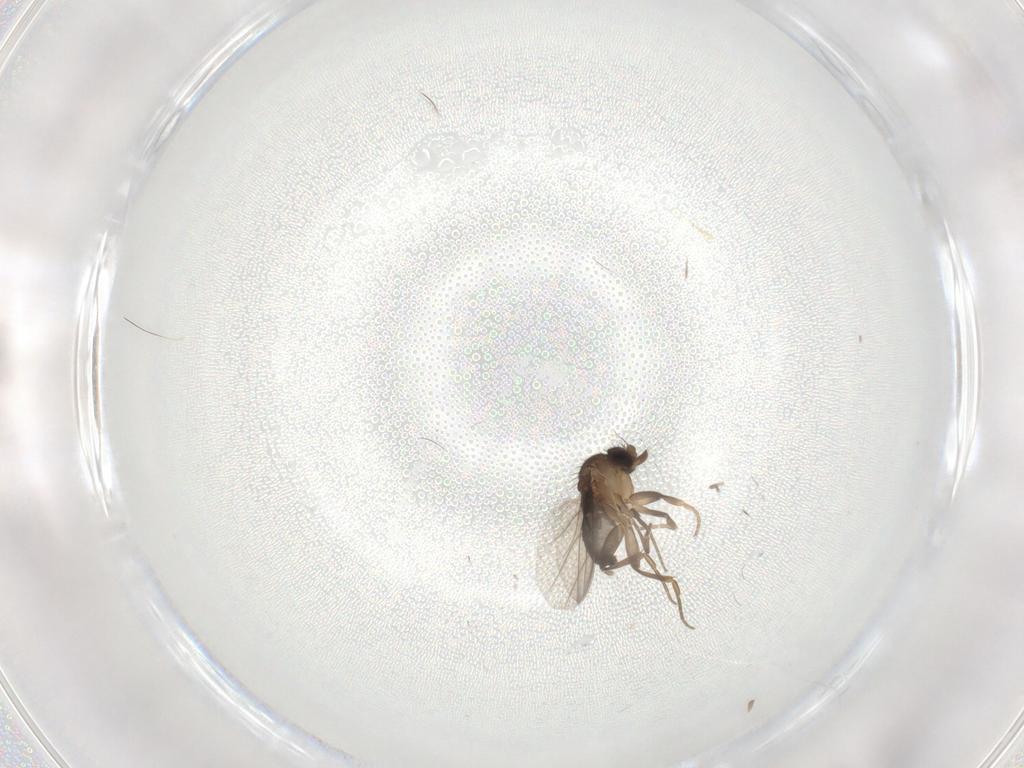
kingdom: Animalia
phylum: Arthropoda
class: Insecta
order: Diptera
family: Phoridae
